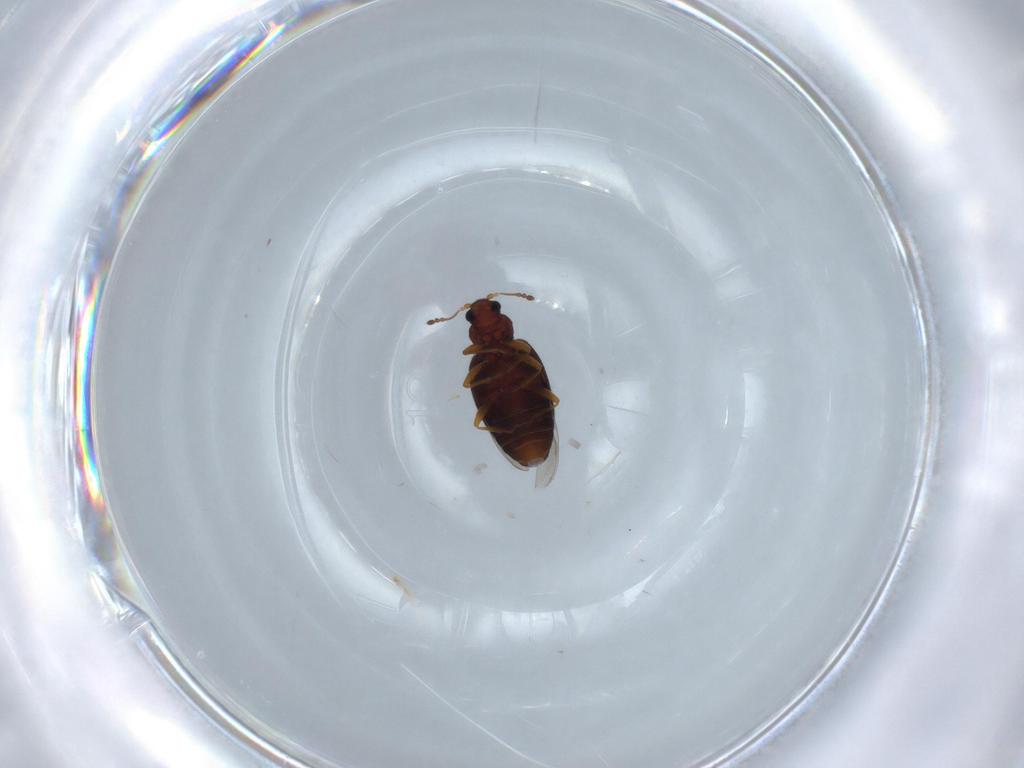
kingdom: Animalia
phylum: Arthropoda
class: Insecta
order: Coleoptera
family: Latridiidae
